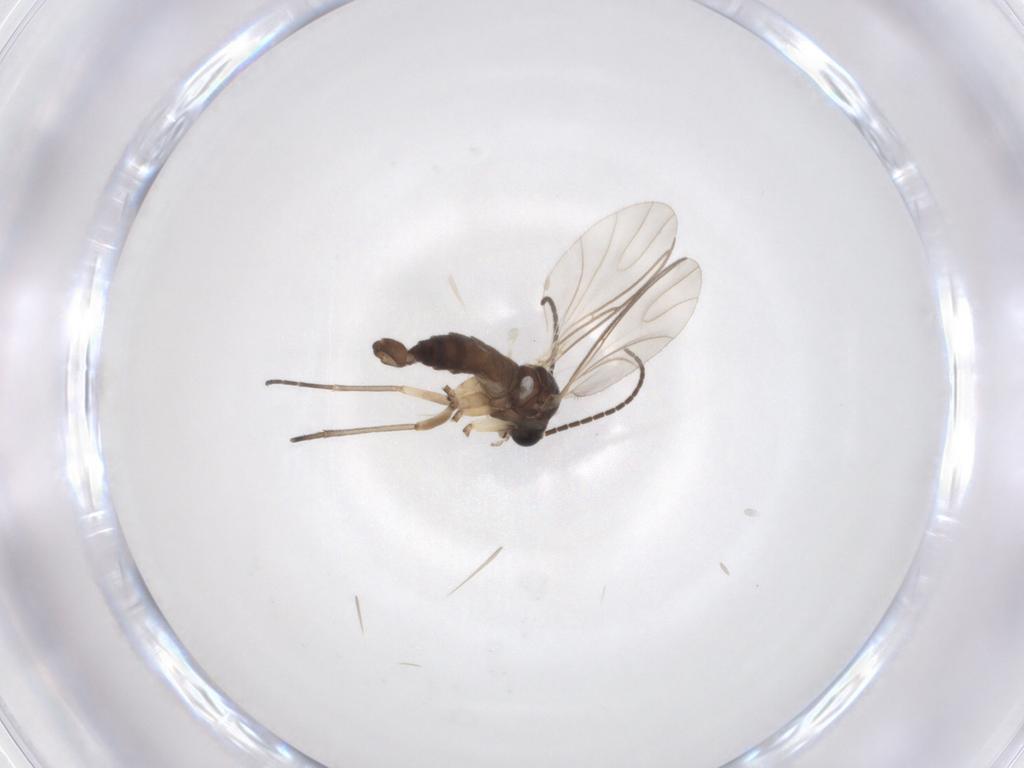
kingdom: Animalia
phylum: Arthropoda
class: Insecta
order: Diptera
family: Sciaridae
